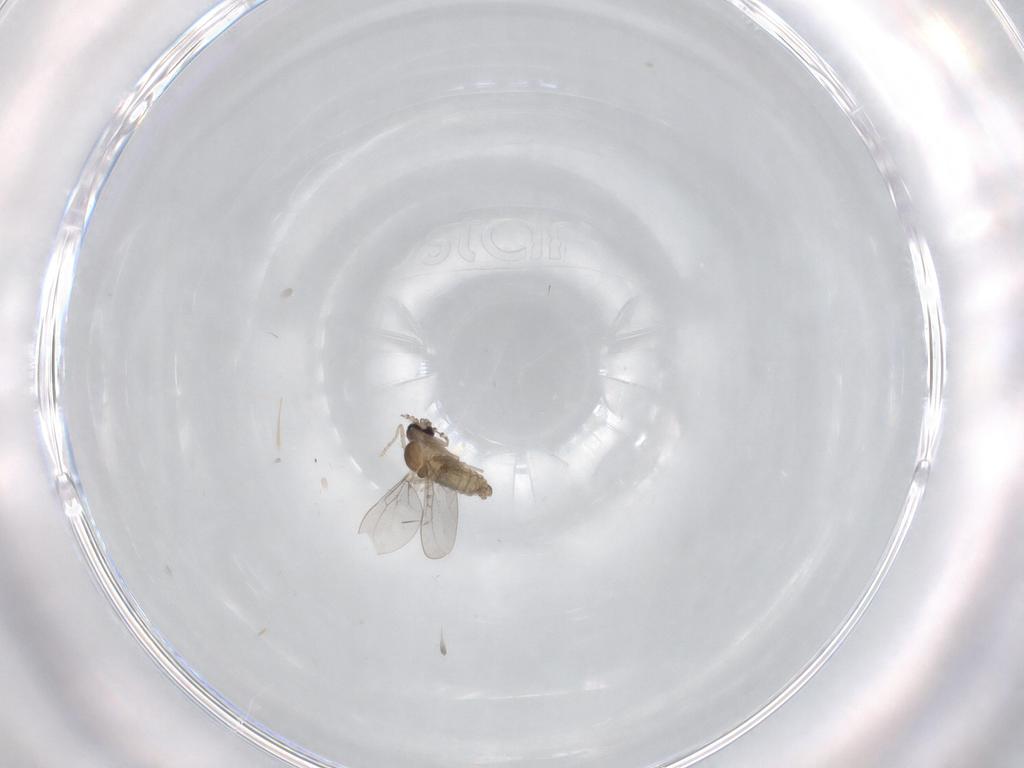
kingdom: Animalia
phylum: Arthropoda
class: Insecta
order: Diptera
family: Cecidomyiidae
